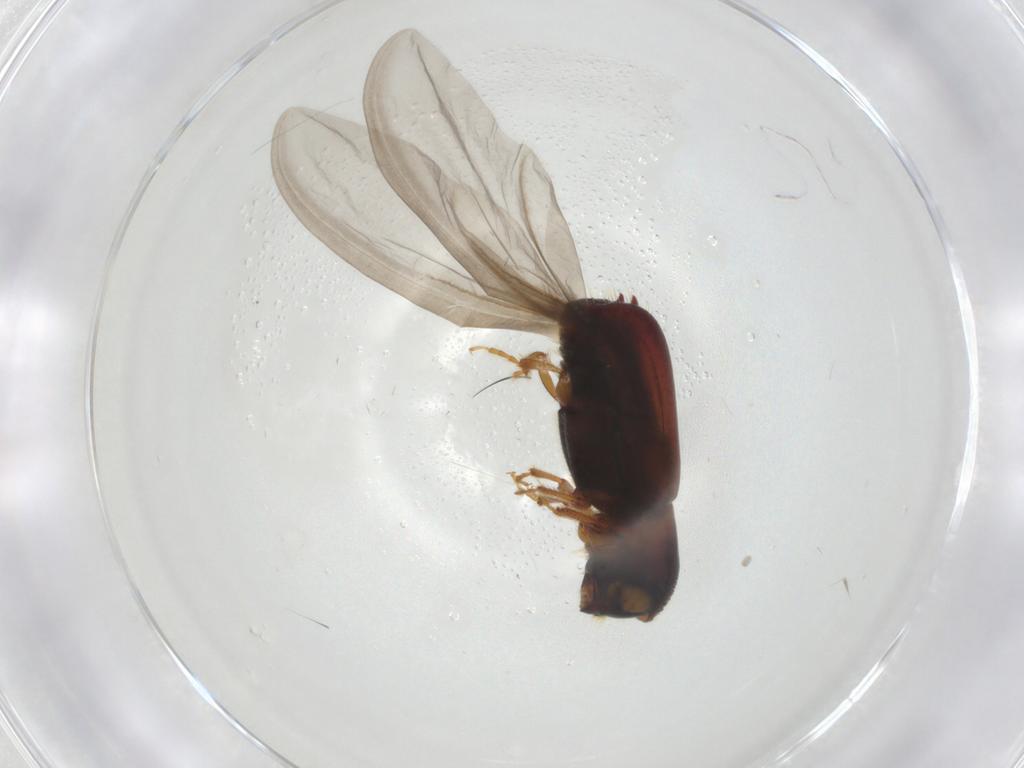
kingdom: Animalia
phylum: Arthropoda
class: Insecta
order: Coleoptera
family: Curculionidae
